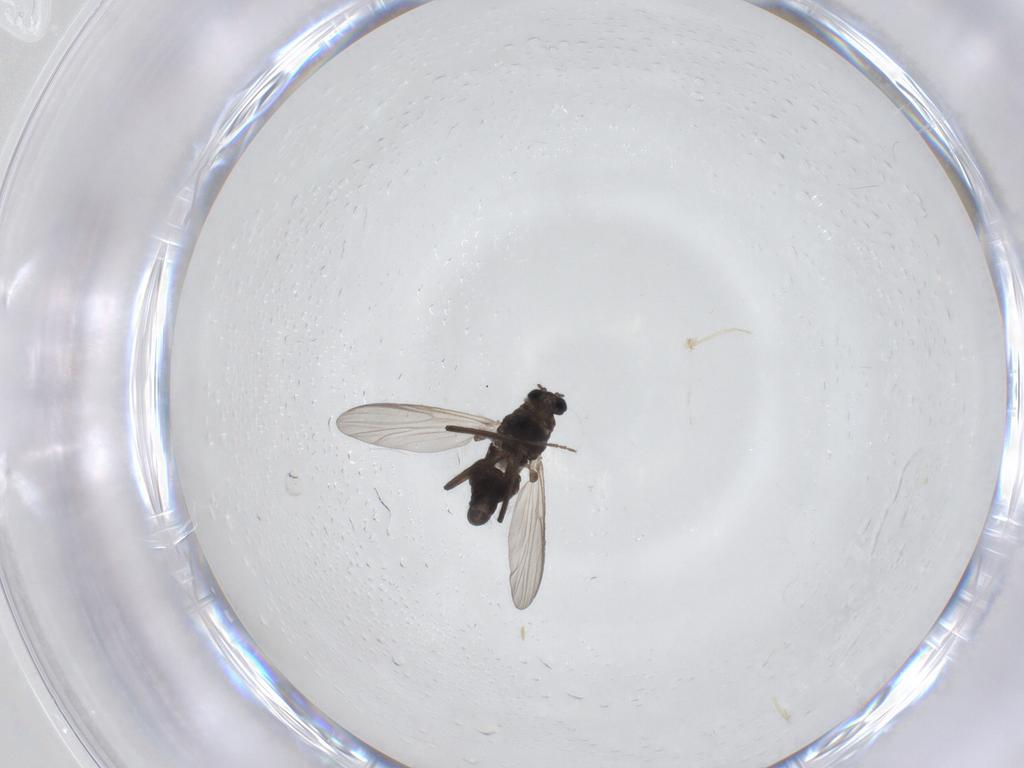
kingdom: Animalia
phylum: Arthropoda
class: Insecta
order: Diptera
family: Chironomidae
